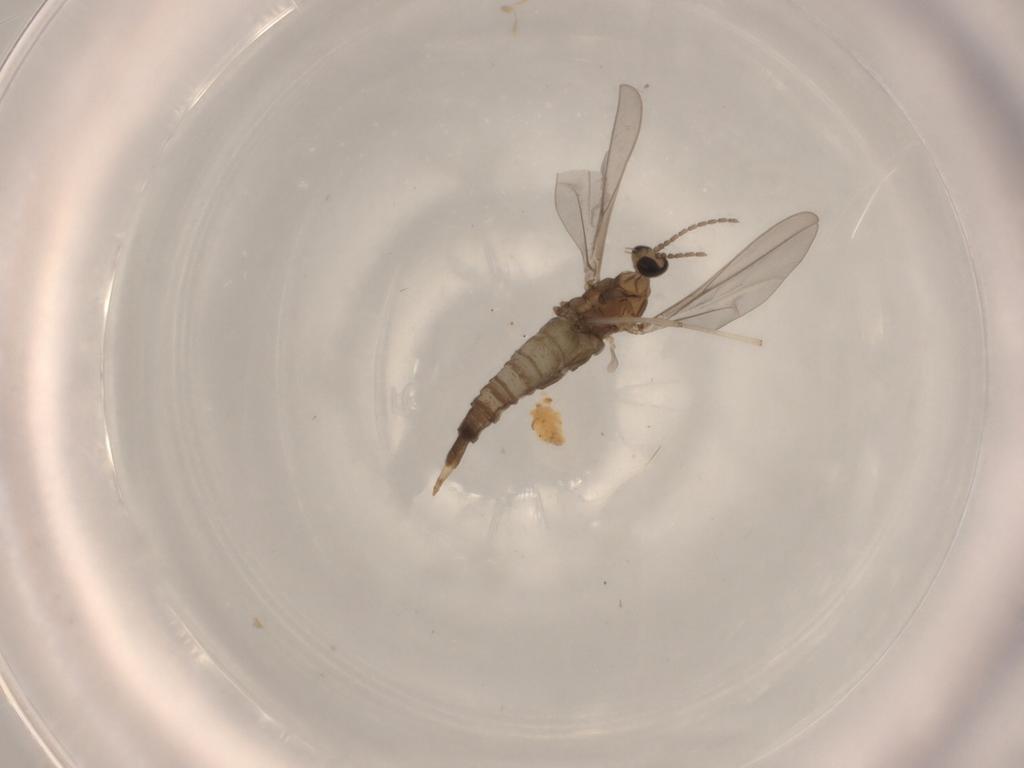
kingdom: Animalia
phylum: Arthropoda
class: Insecta
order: Diptera
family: Cecidomyiidae
